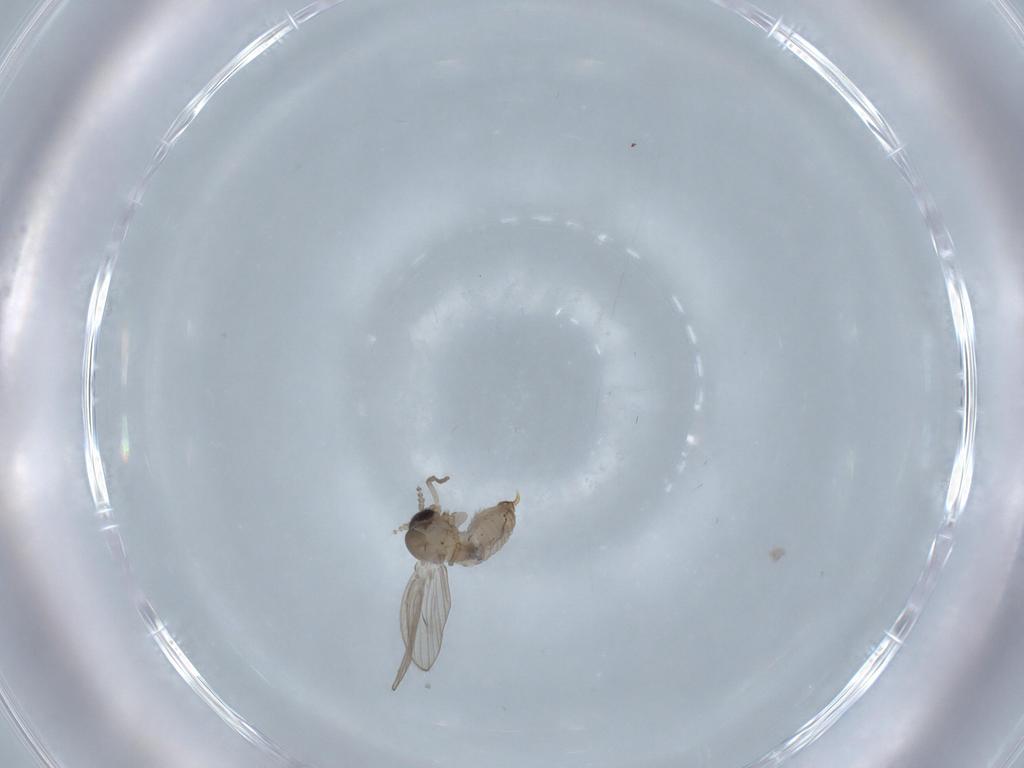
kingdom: Animalia
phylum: Arthropoda
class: Insecta
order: Diptera
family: Limoniidae
